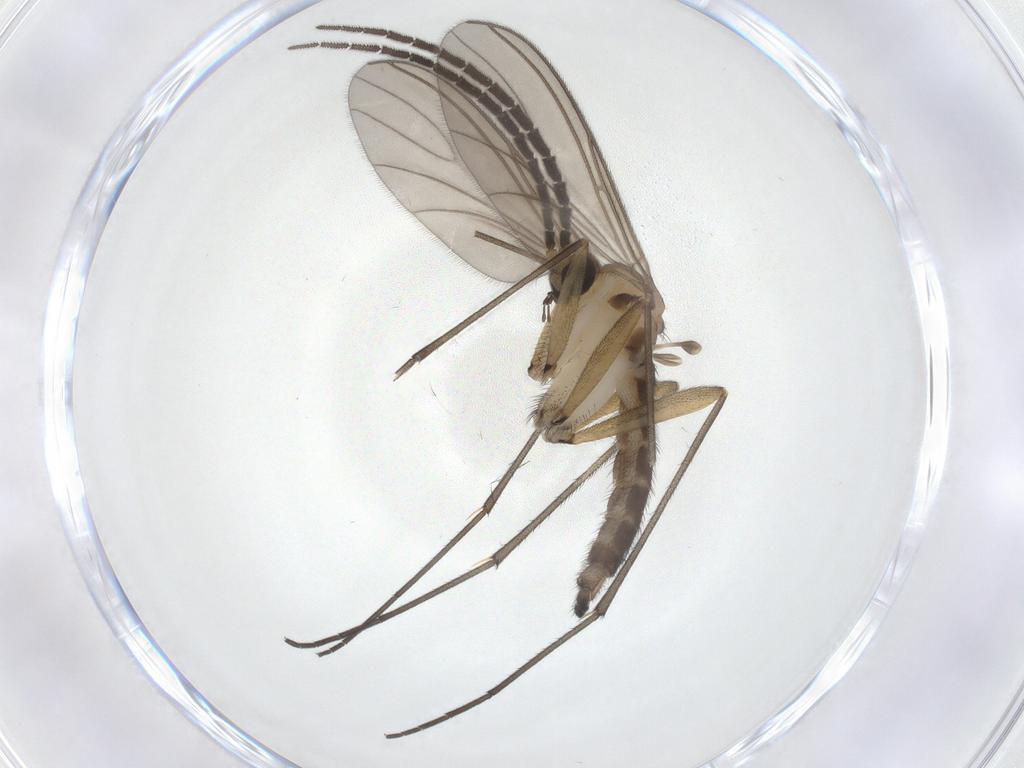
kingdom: Animalia
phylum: Arthropoda
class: Insecta
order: Diptera
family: Sciaridae
